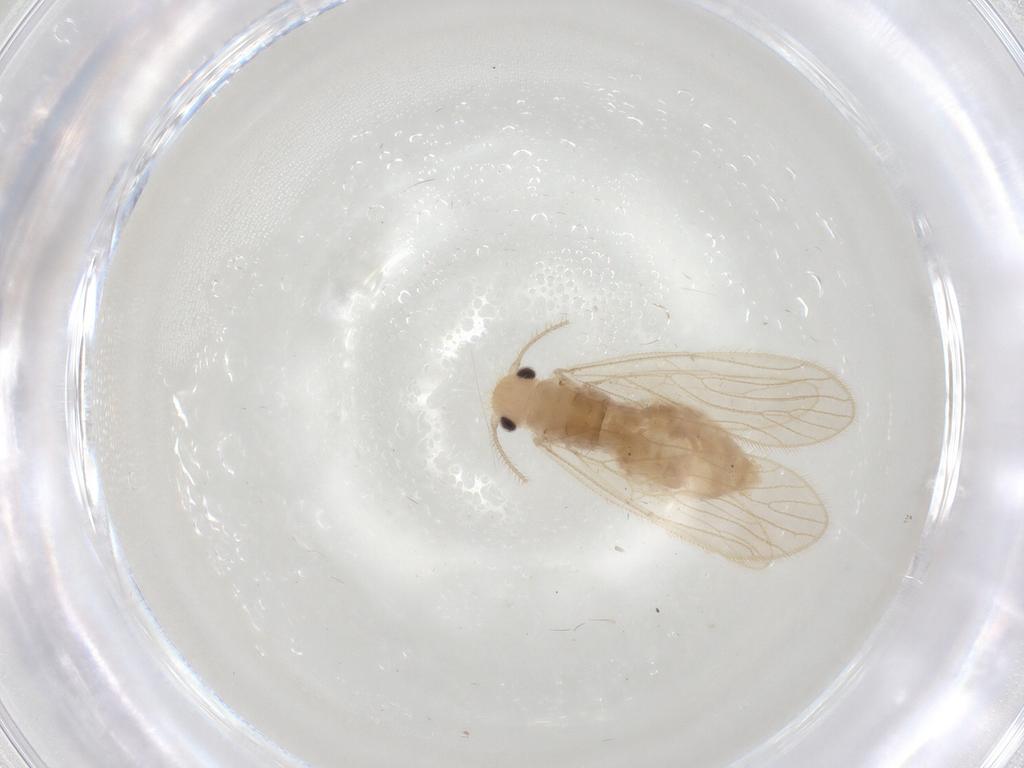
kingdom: Animalia
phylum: Arthropoda
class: Insecta
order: Psocodea
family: Cladiopsocidae
